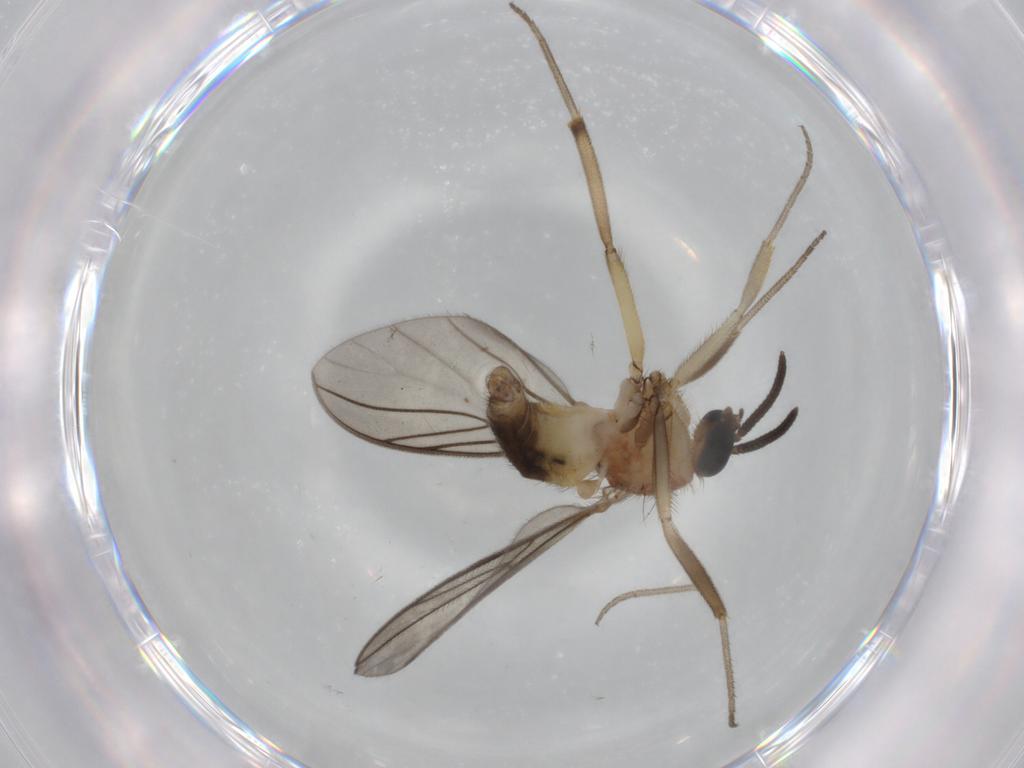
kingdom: Animalia
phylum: Arthropoda
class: Insecta
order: Diptera
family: Anisopodidae
